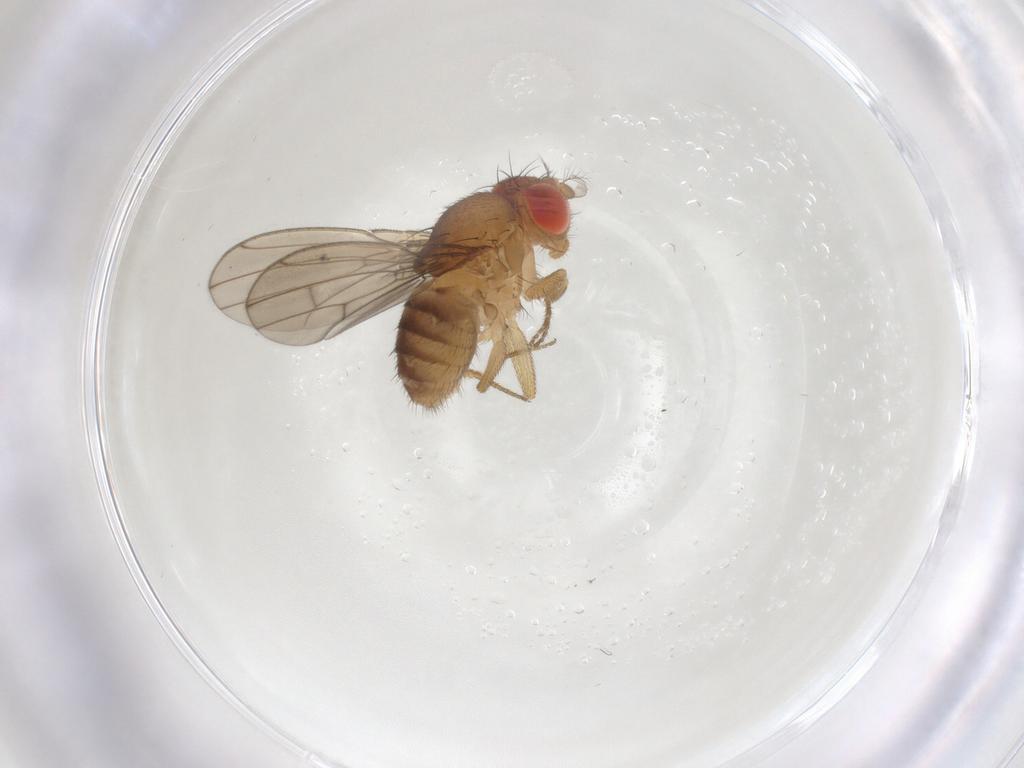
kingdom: Animalia
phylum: Arthropoda
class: Insecta
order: Diptera
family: Drosophilidae
